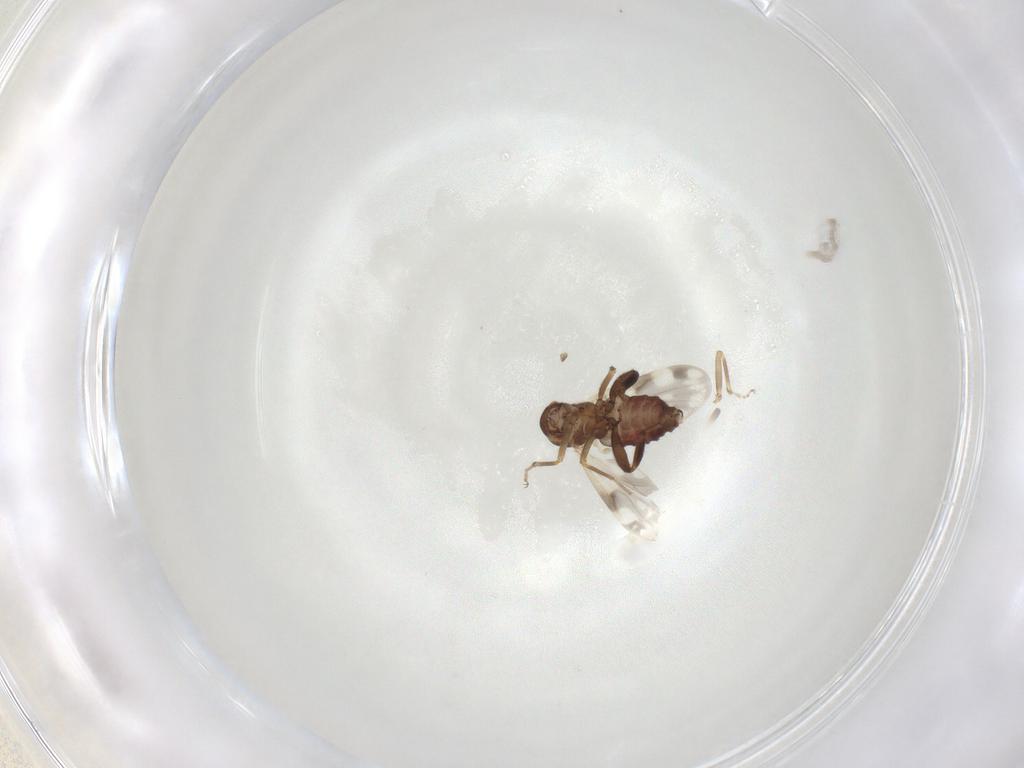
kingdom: Animalia
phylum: Arthropoda
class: Insecta
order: Diptera
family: Ceratopogonidae
